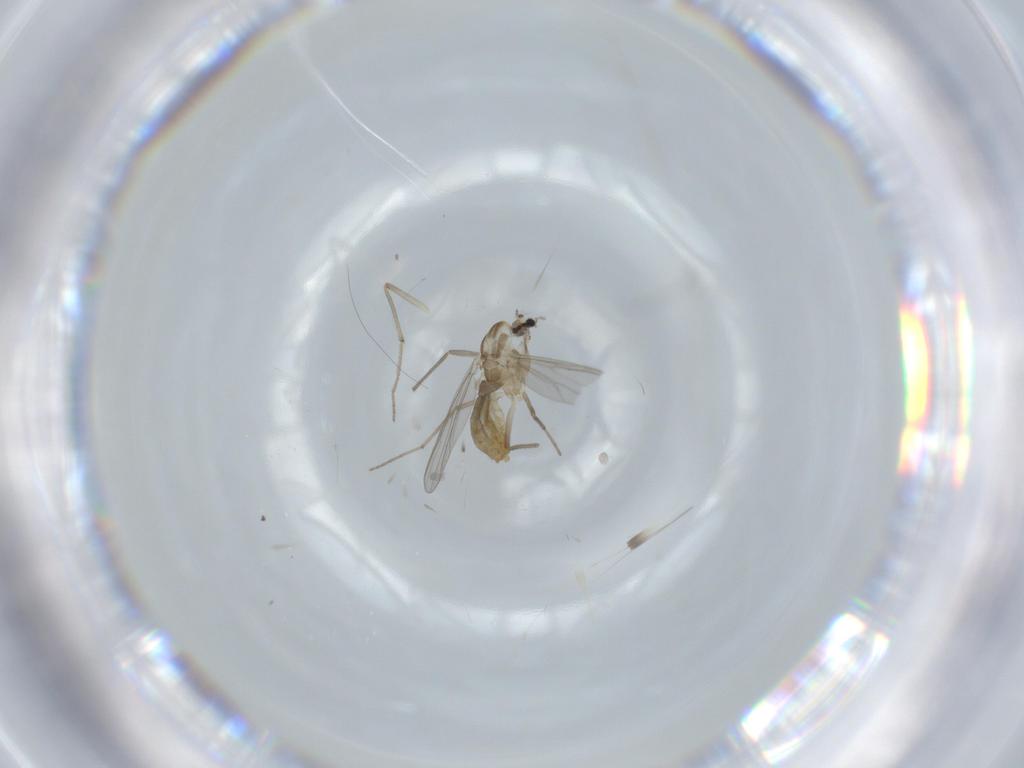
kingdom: Animalia
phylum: Arthropoda
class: Insecta
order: Diptera
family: Chironomidae
